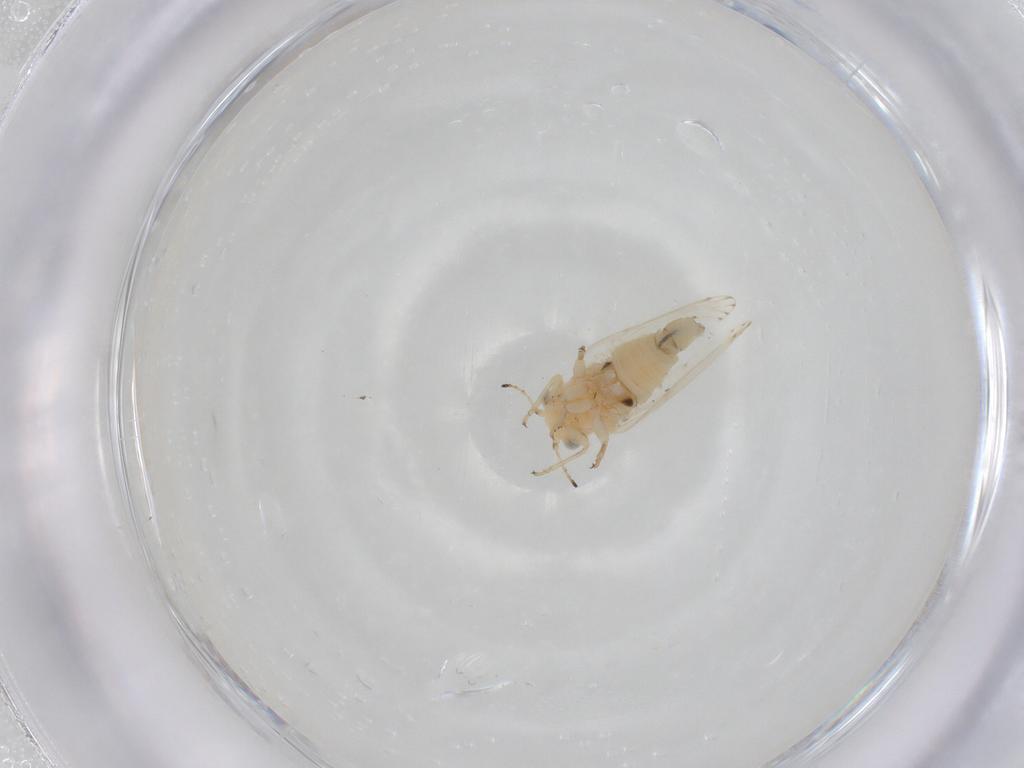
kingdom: Animalia
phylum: Arthropoda
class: Insecta
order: Hemiptera
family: Aphalaridae
